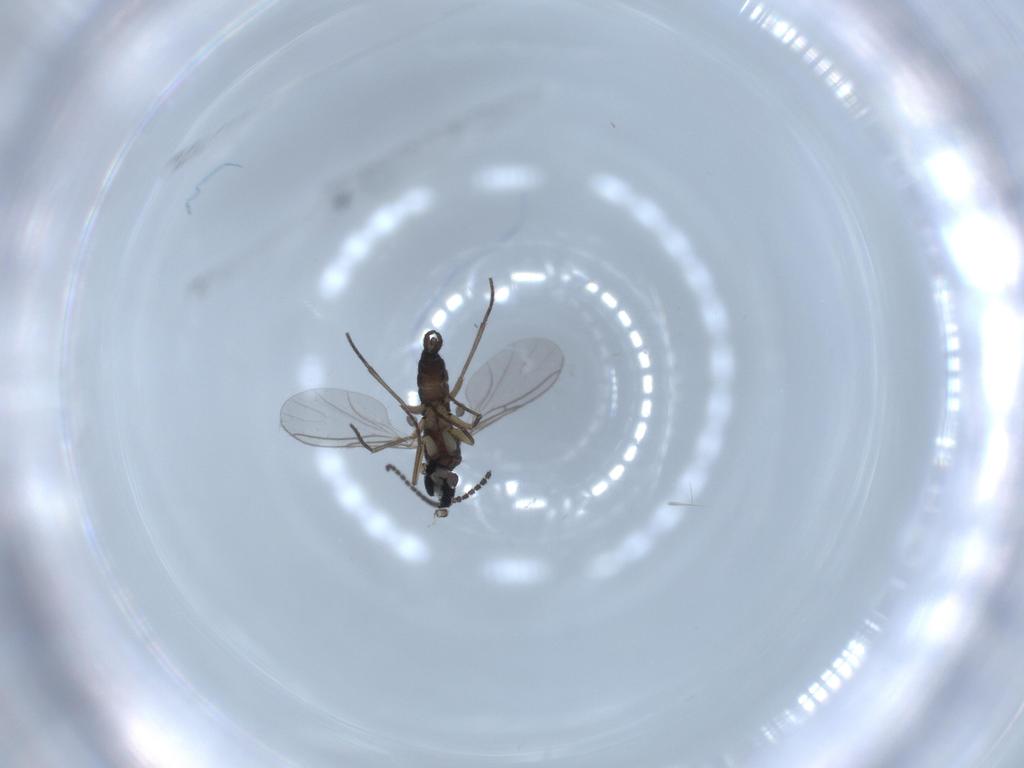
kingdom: Animalia
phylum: Arthropoda
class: Insecta
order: Diptera
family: Sciaridae
